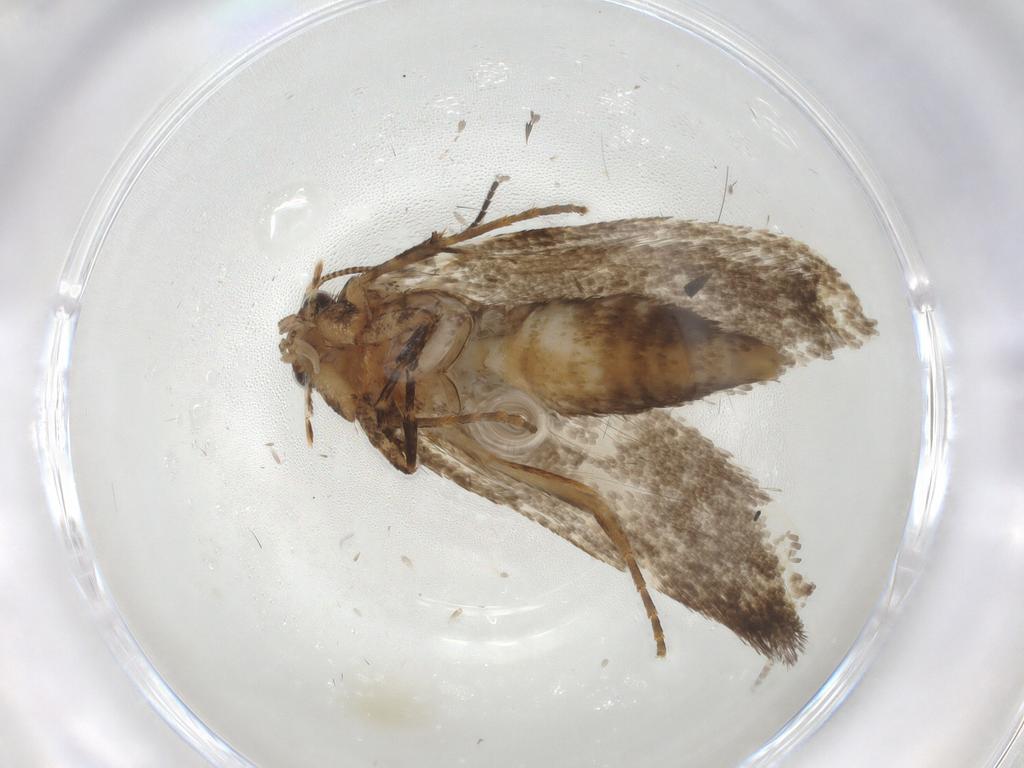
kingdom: Animalia
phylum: Arthropoda
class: Insecta
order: Lepidoptera
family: Crambidae
